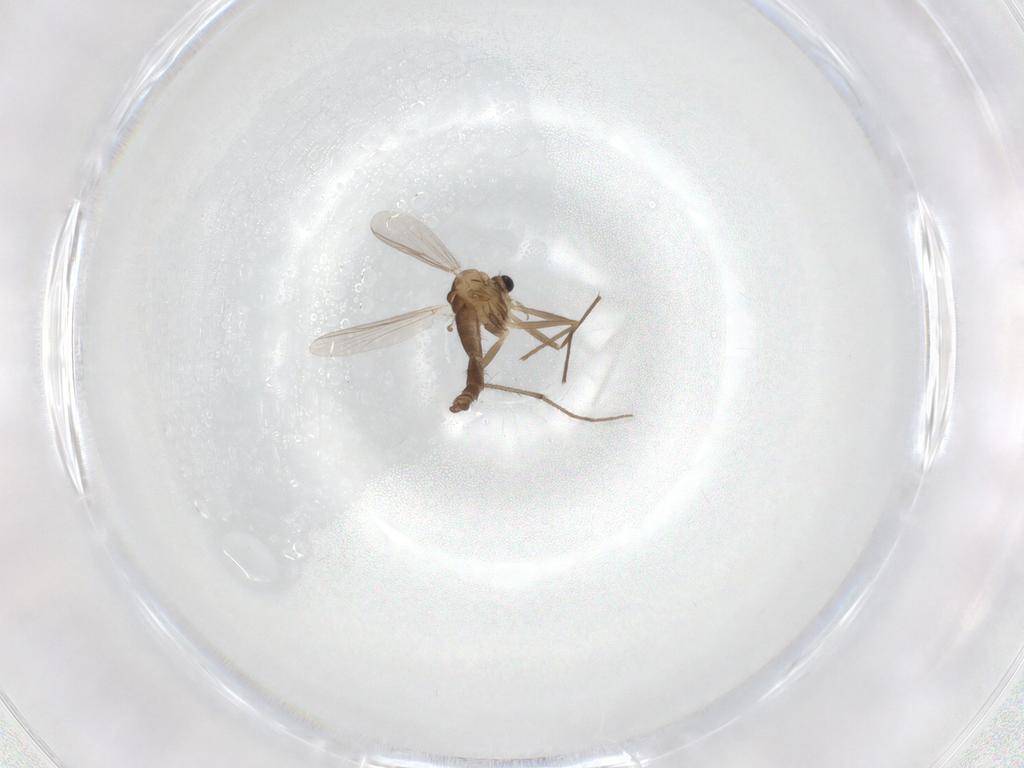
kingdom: Animalia
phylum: Arthropoda
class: Insecta
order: Diptera
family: Chironomidae
